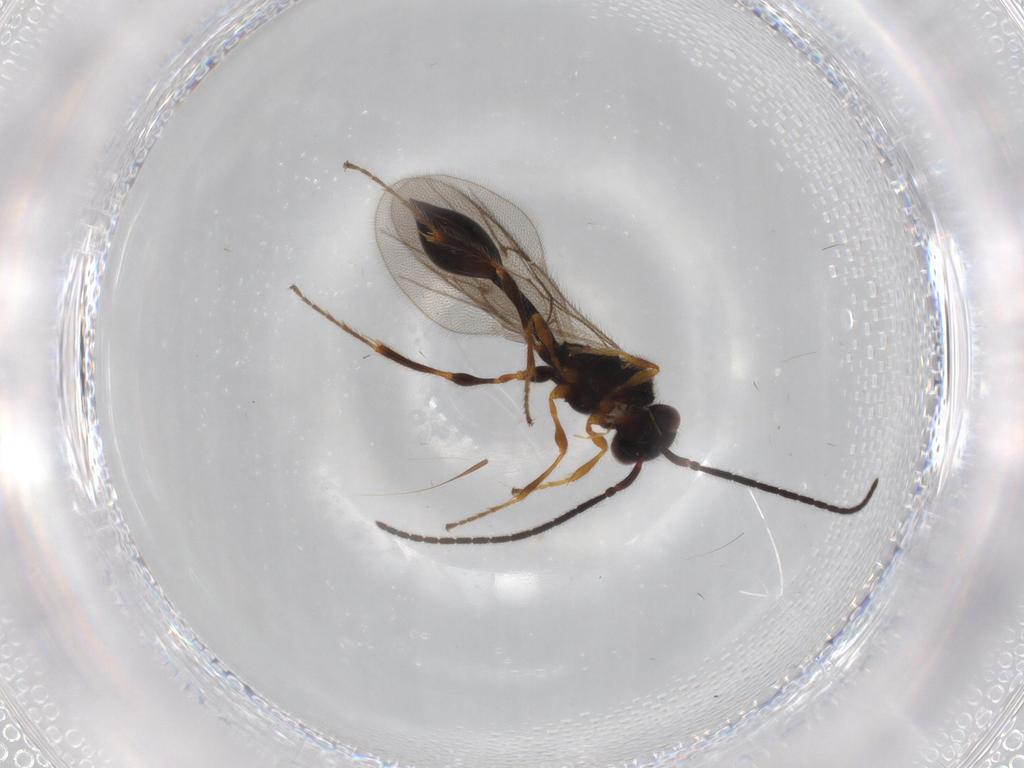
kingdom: Animalia
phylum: Arthropoda
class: Insecta
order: Hymenoptera
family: Diapriidae
